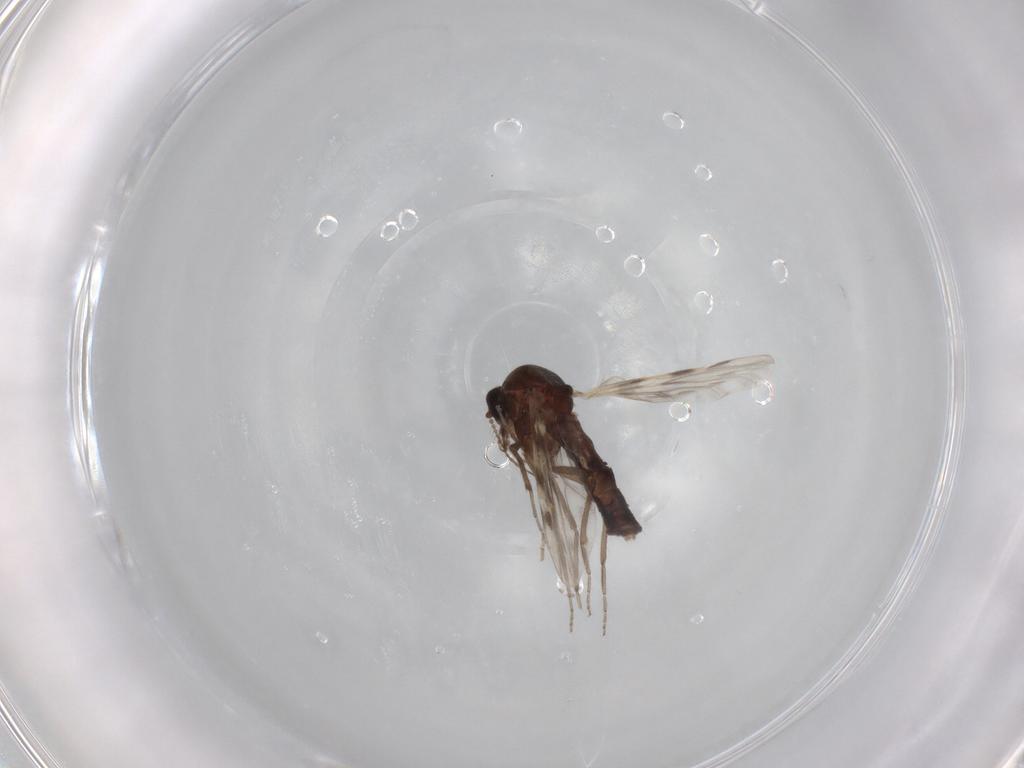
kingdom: Animalia
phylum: Arthropoda
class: Insecta
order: Diptera
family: Ceratopogonidae
